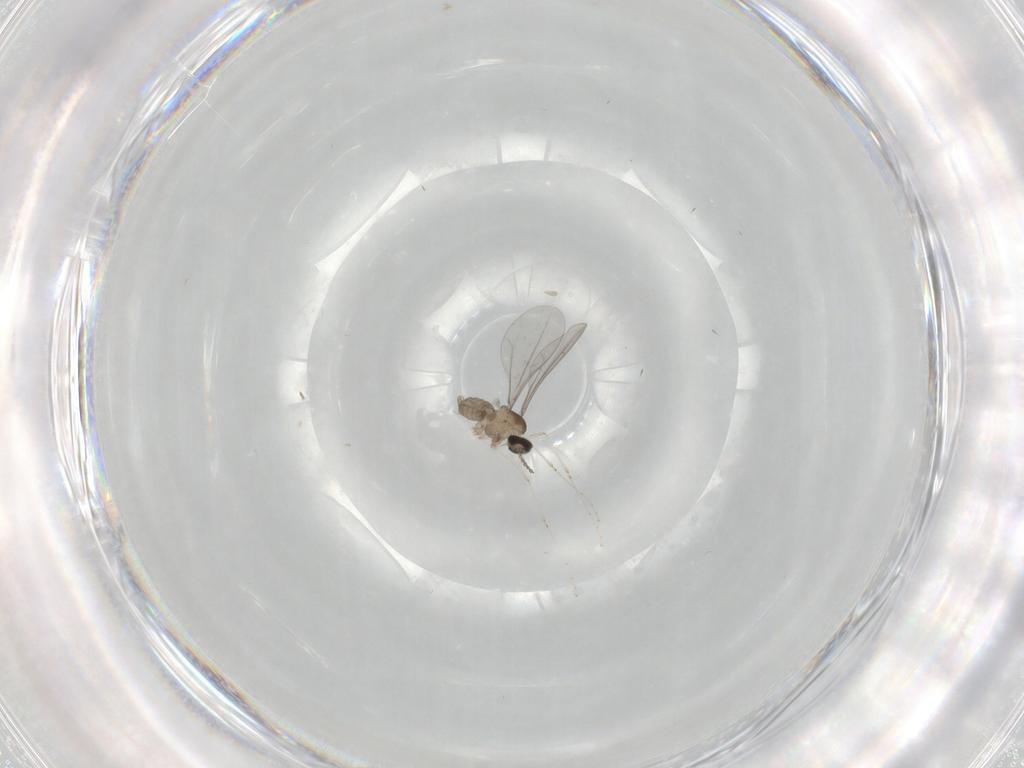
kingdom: Animalia
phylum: Arthropoda
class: Insecta
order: Diptera
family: Cecidomyiidae
